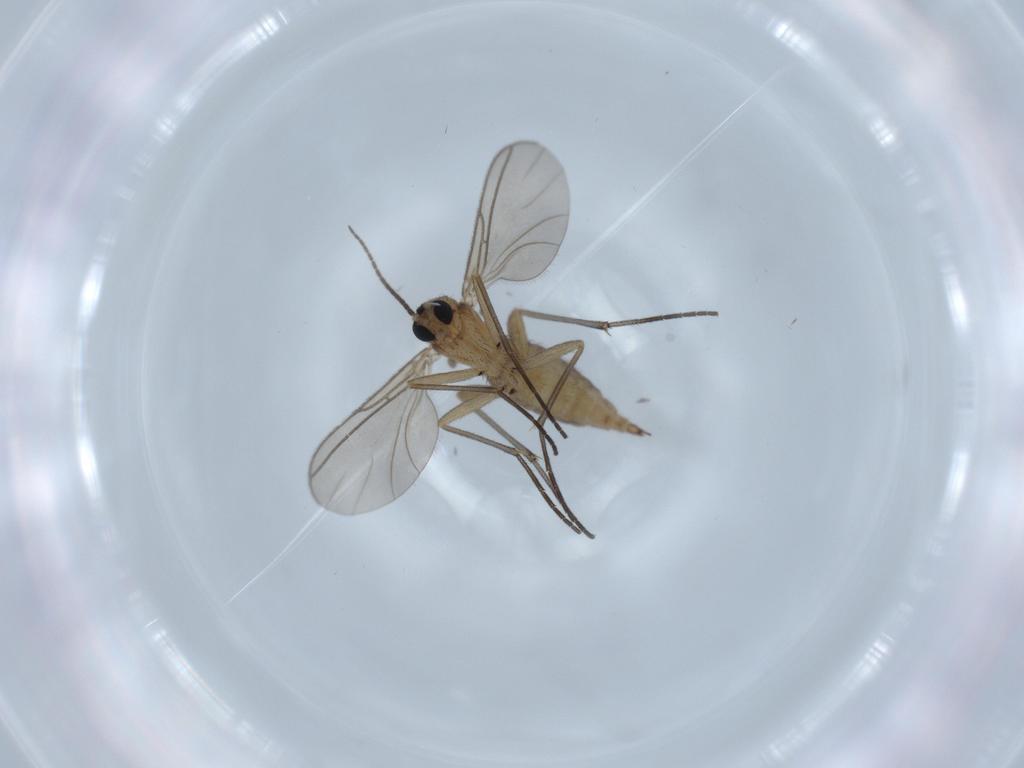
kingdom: Animalia
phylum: Arthropoda
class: Insecta
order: Diptera
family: Sciaridae
